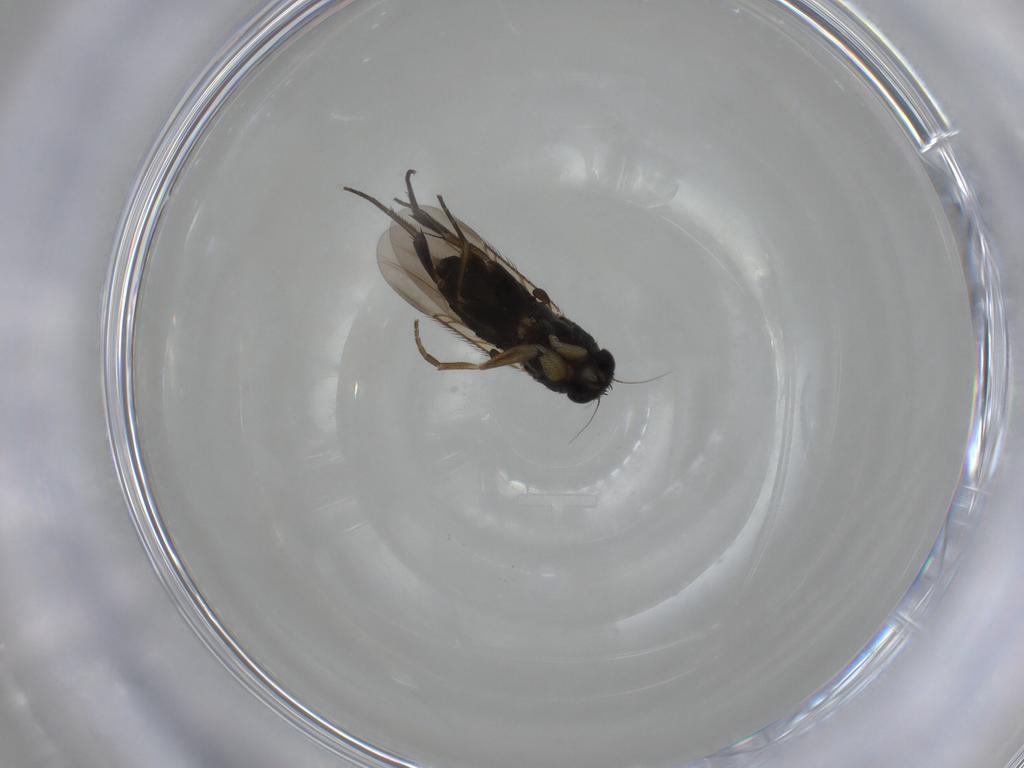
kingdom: Animalia
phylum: Arthropoda
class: Insecta
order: Diptera
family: Phoridae
